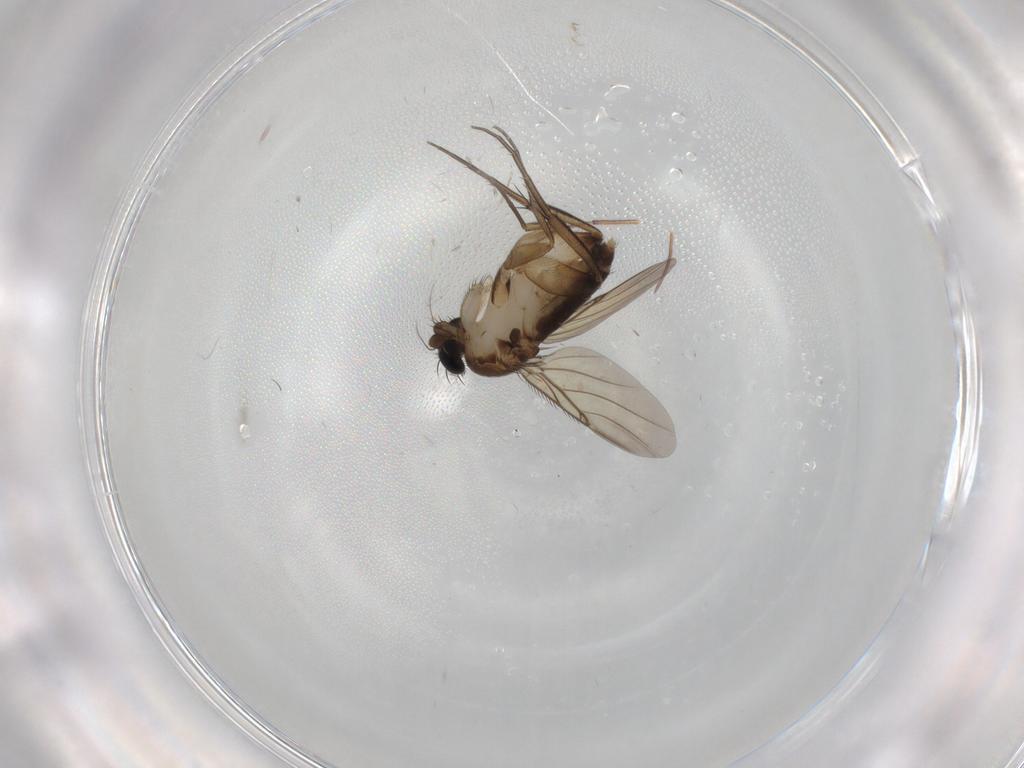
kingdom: Animalia
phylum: Arthropoda
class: Insecta
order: Diptera
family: Phoridae
